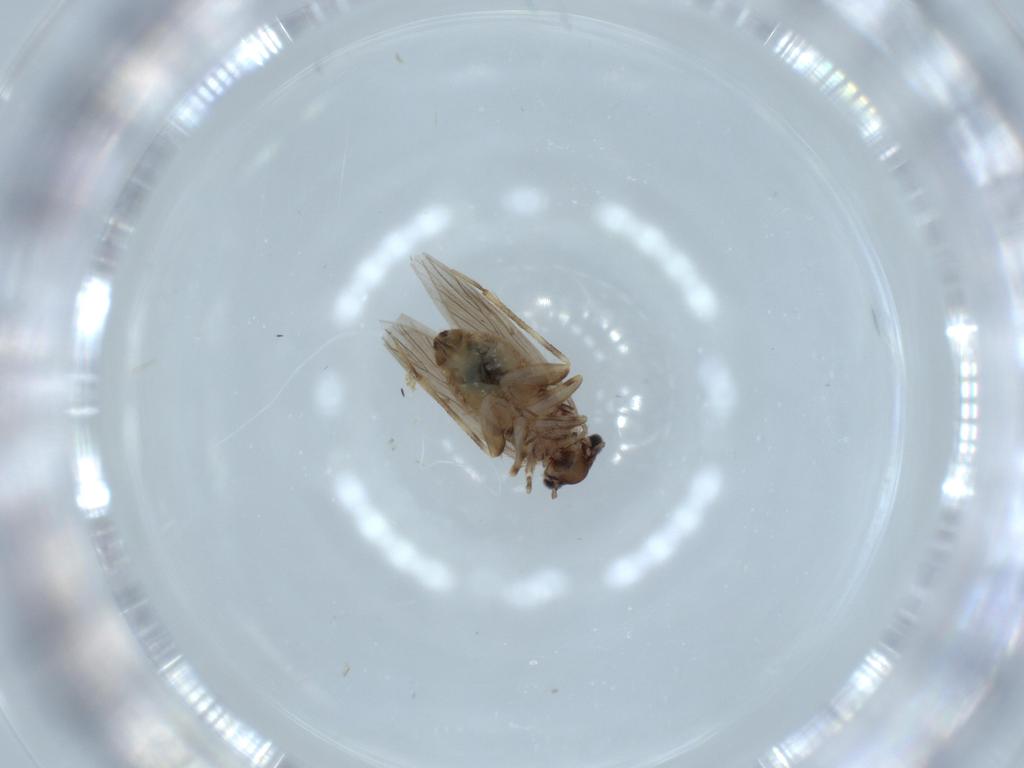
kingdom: Animalia
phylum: Arthropoda
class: Insecta
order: Psocodea
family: Lepidopsocidae
